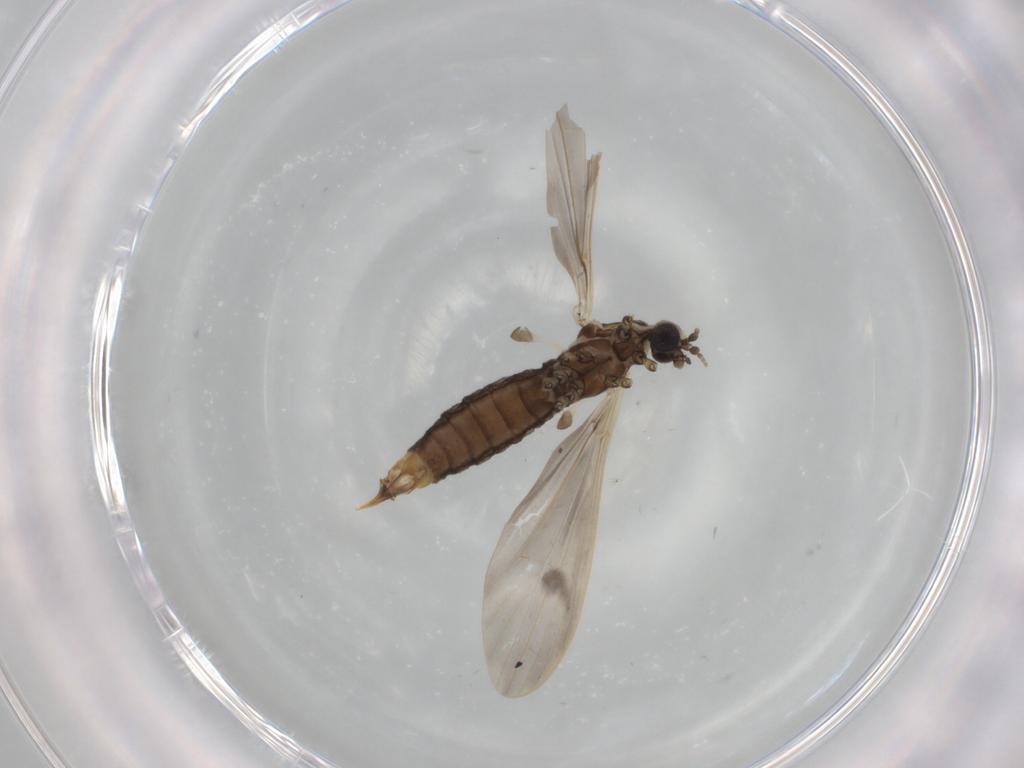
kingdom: Animalia
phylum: Arthropoda
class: Insecta
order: Diptera
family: Limoniidae
